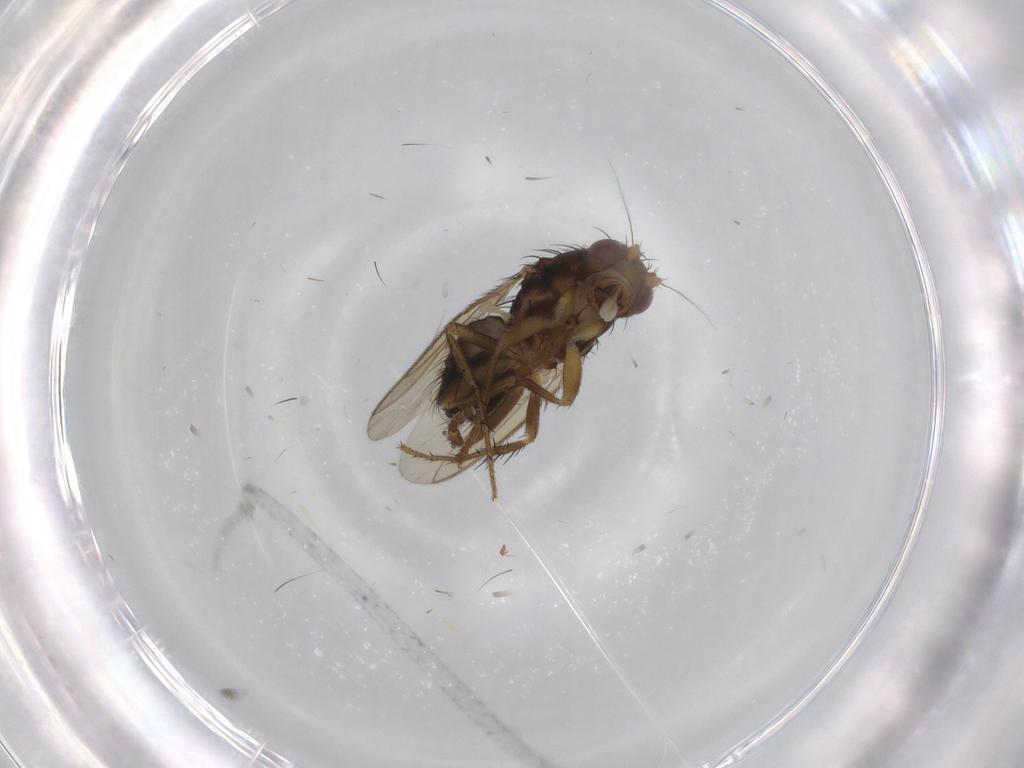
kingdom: Animalia
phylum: Arthropoda
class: Insecta
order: Diptera
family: Sphaeroceridae
